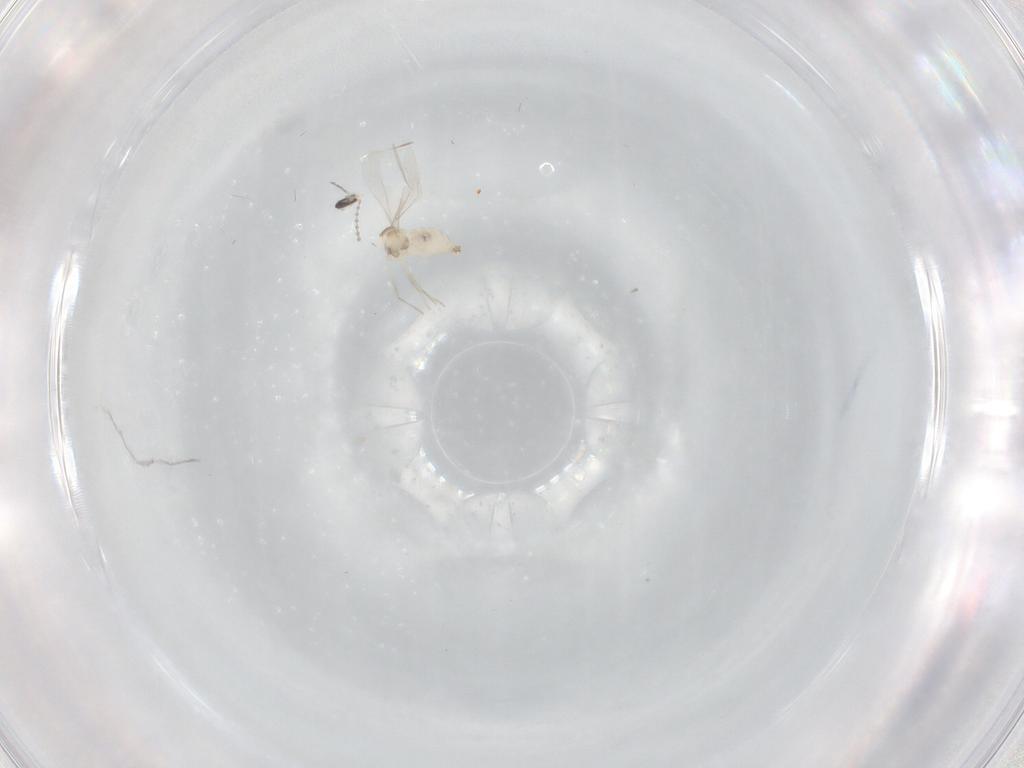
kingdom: Animalia
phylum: Arthropoda
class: Insecta
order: Diptera
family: Cecidomyiidae
